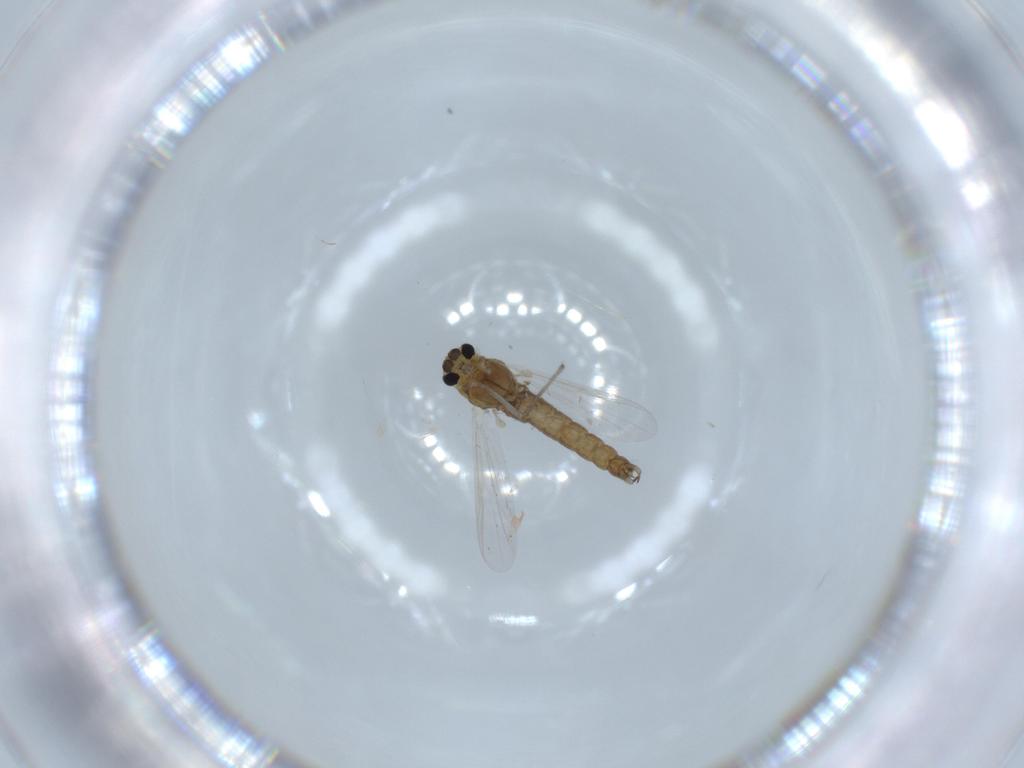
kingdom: Animalia
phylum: Arthropoda
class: Insecta
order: Diptera
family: Chironomidae
